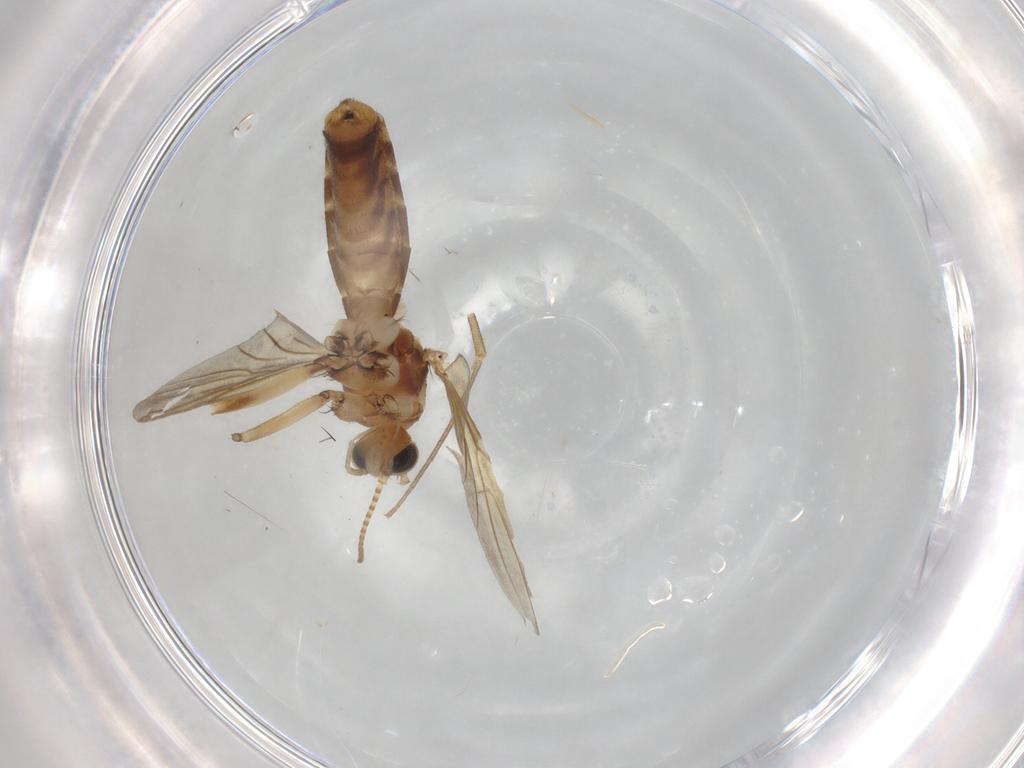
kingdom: Animalia
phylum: Arthropoda
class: Insecta
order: Diptera
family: Mycetophilidae
